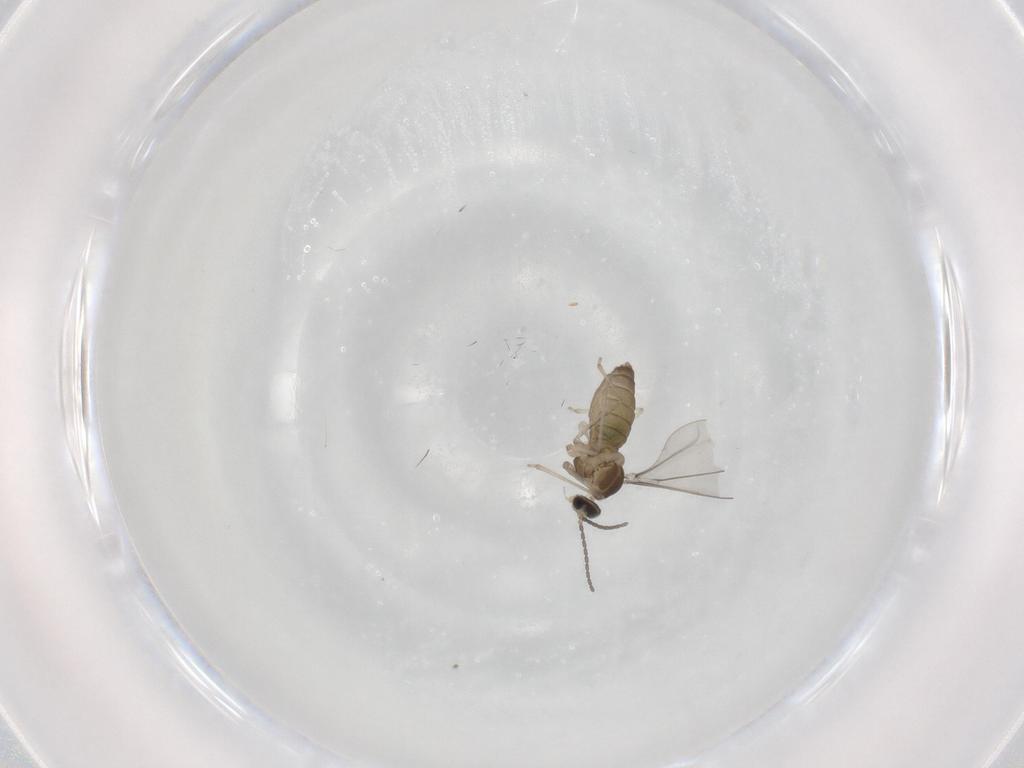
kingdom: Animalia
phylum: Arthropoda
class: Insecta
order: Diptera
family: Cecidomyiidae
